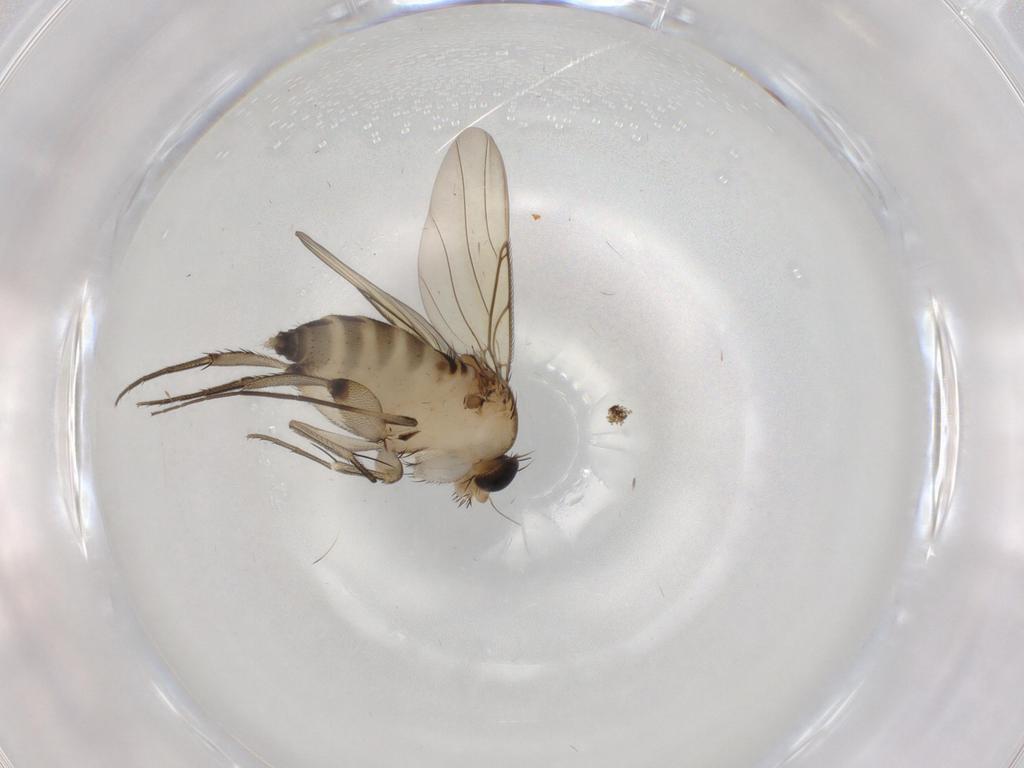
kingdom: Animalia
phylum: Arthropoda
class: Insecta
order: Diptera
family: Phoridae
